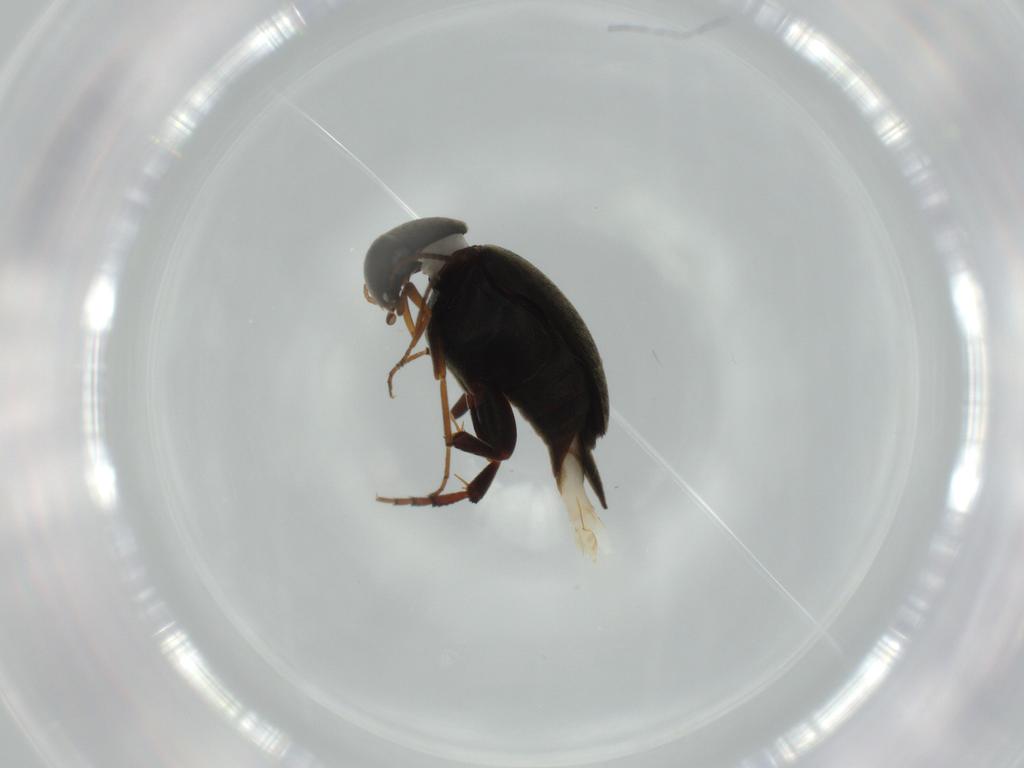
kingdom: Animalia
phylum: Arthropoda
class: Insecta
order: Coleoptera
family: Mordellidae
